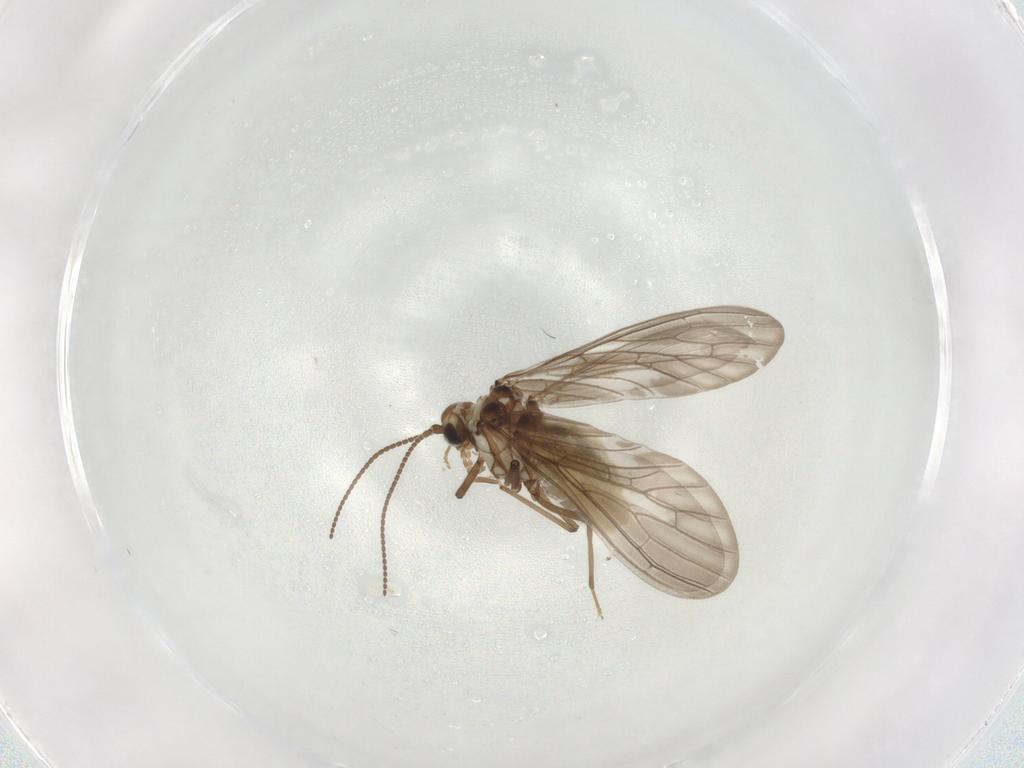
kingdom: Animalia
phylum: Arthropoda
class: Insecta
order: Neuroptera
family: Coniopterygidae
